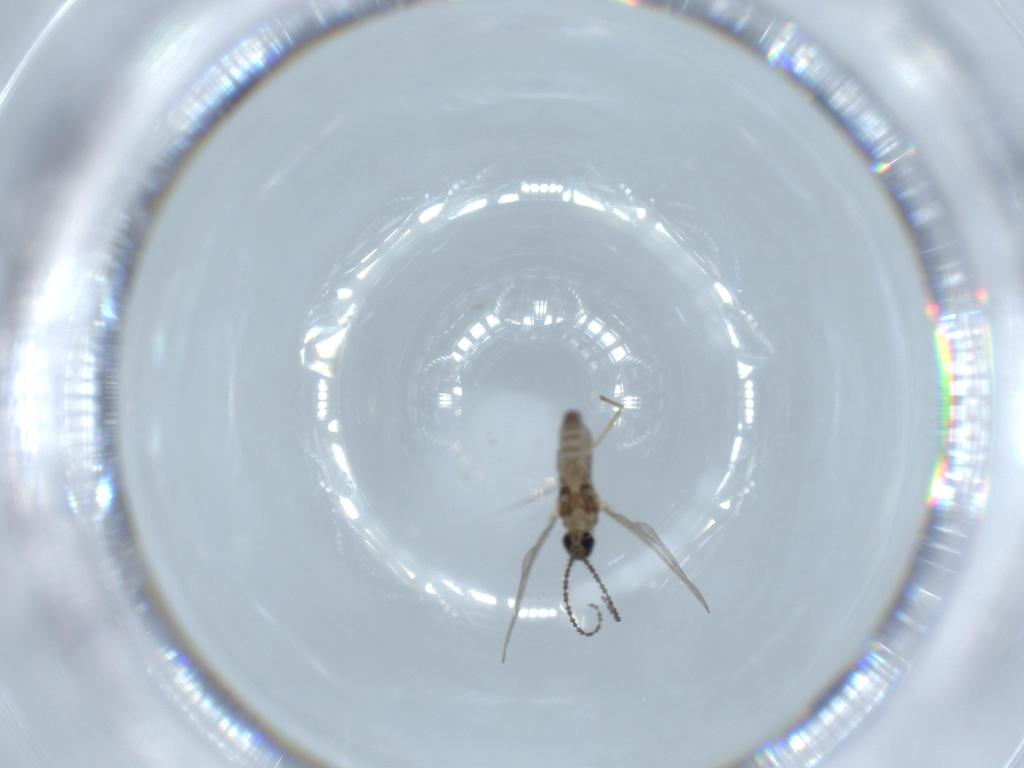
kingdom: Animalia
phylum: Arthropoda
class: Insecta
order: Diptera
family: Cecidomyiidae
